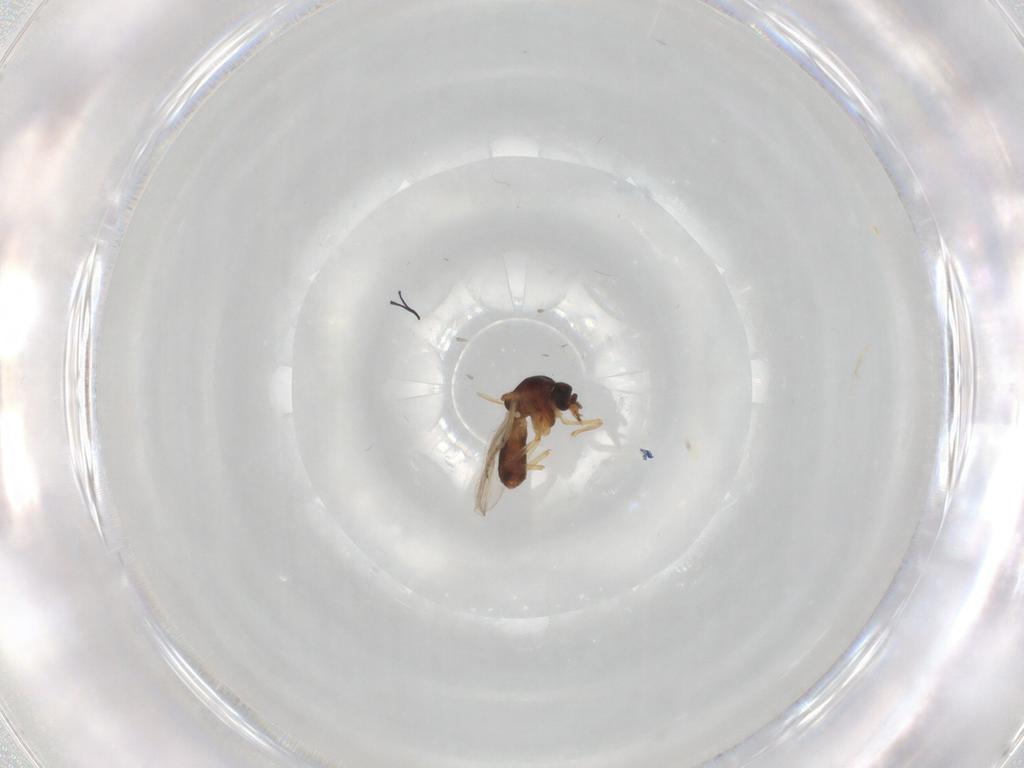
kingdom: Animalia
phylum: Arthropoda
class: Insecta
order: Diptera
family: Ceratopogonidae
